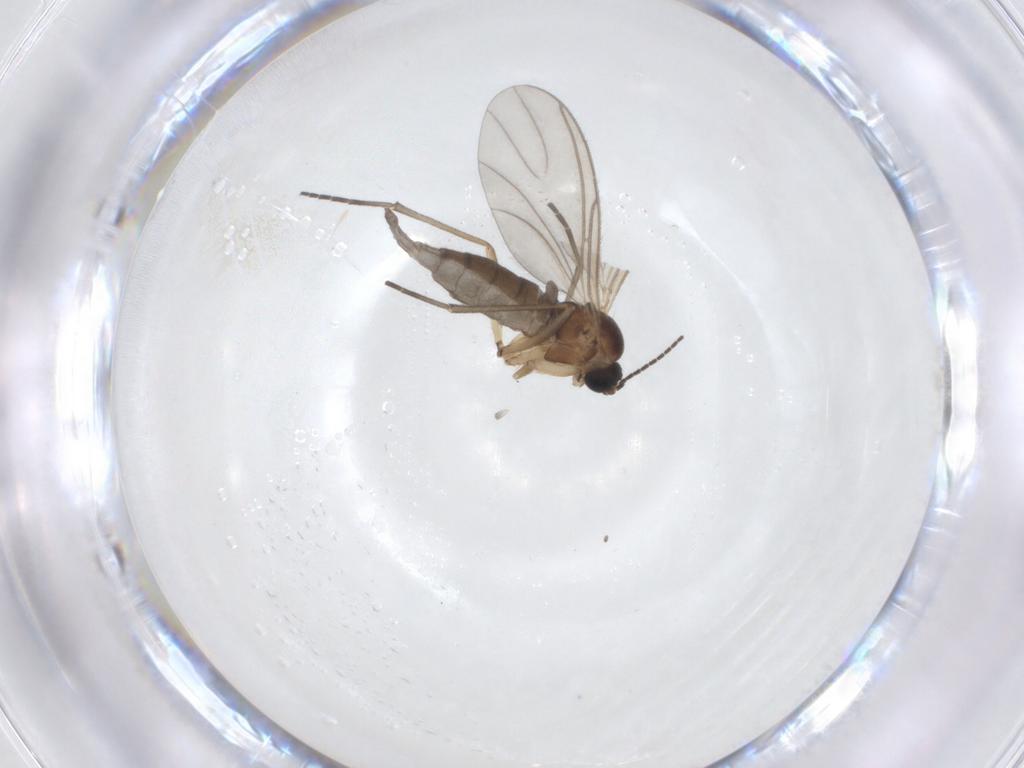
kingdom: Animalia
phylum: Arthropoda
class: Insecta
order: Diptera
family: Sciaridae
